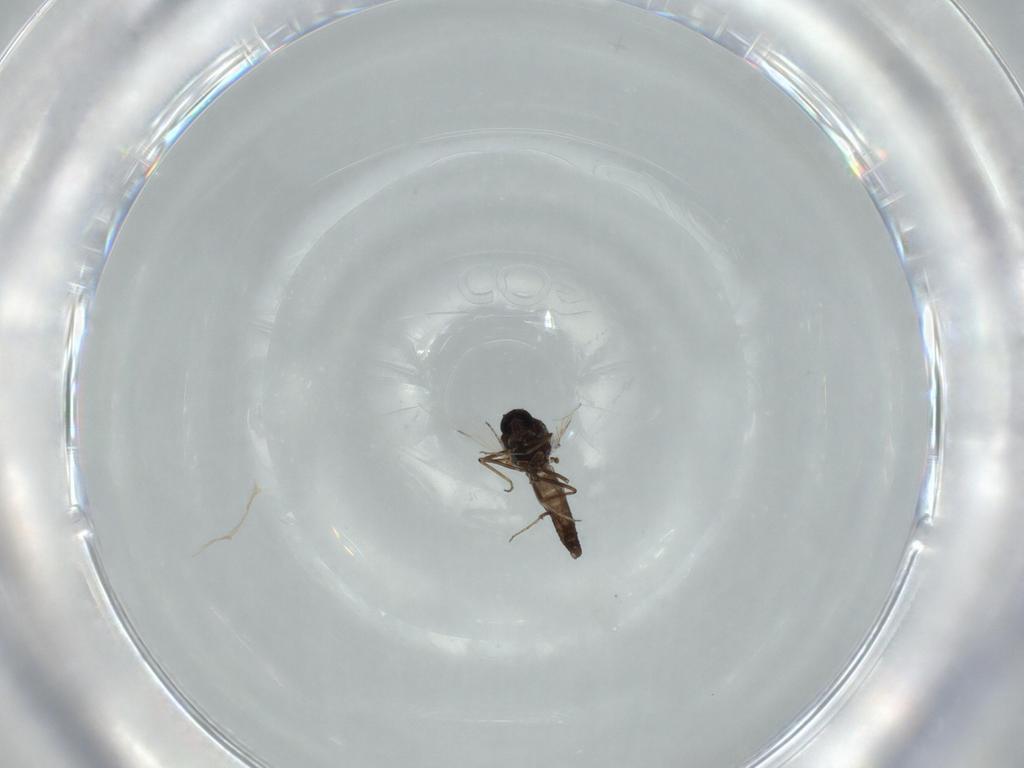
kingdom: Animalia
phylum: Arthropoda
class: Insecta
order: Diptera
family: Ceratopogonidae
